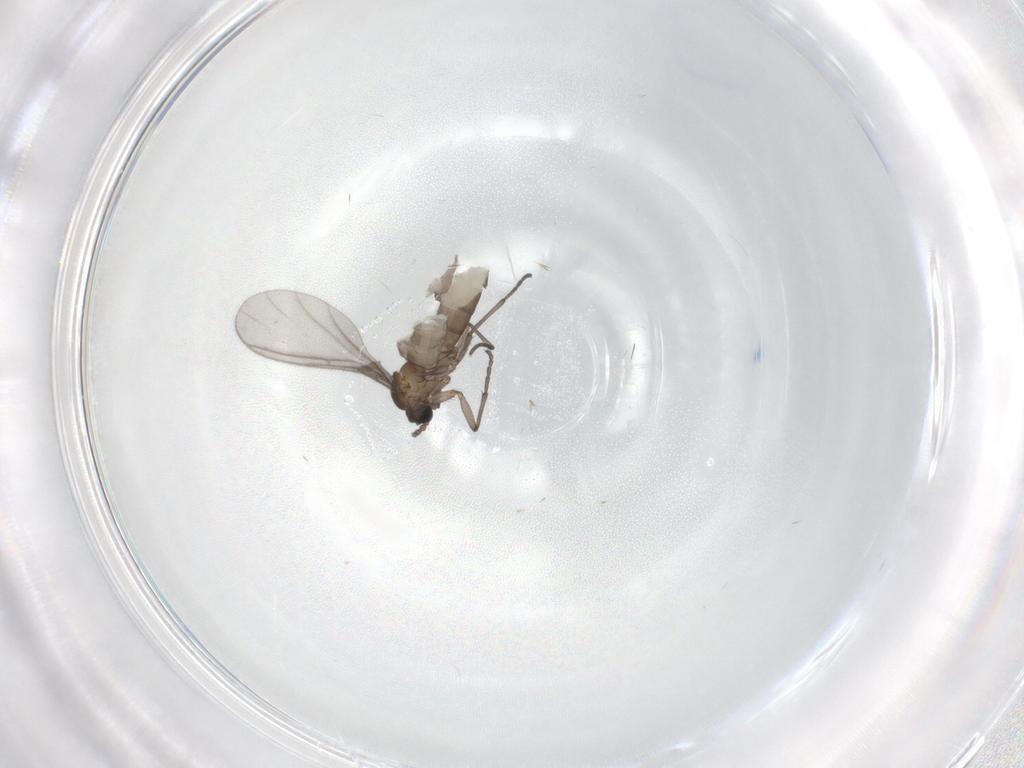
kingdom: Animalia
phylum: Arthropoda
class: Insecta
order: Diptera
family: Sciaridae
